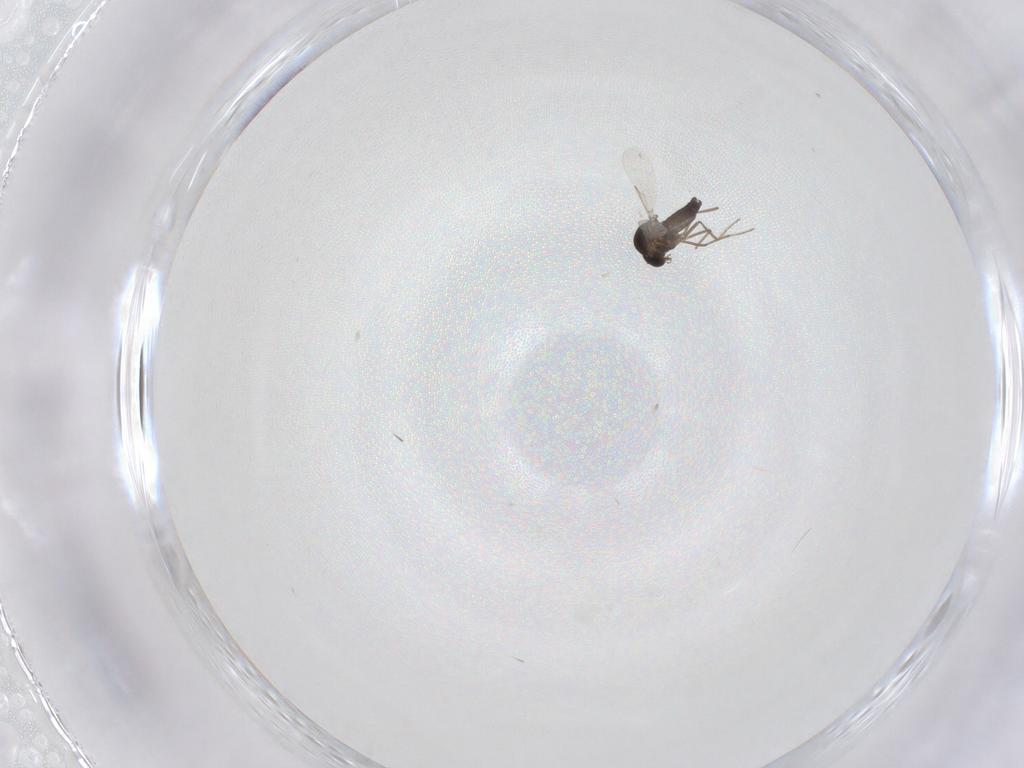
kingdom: Animalia
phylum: Arthropoda
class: Insecta
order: Diptera
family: Ceratopogonidae
